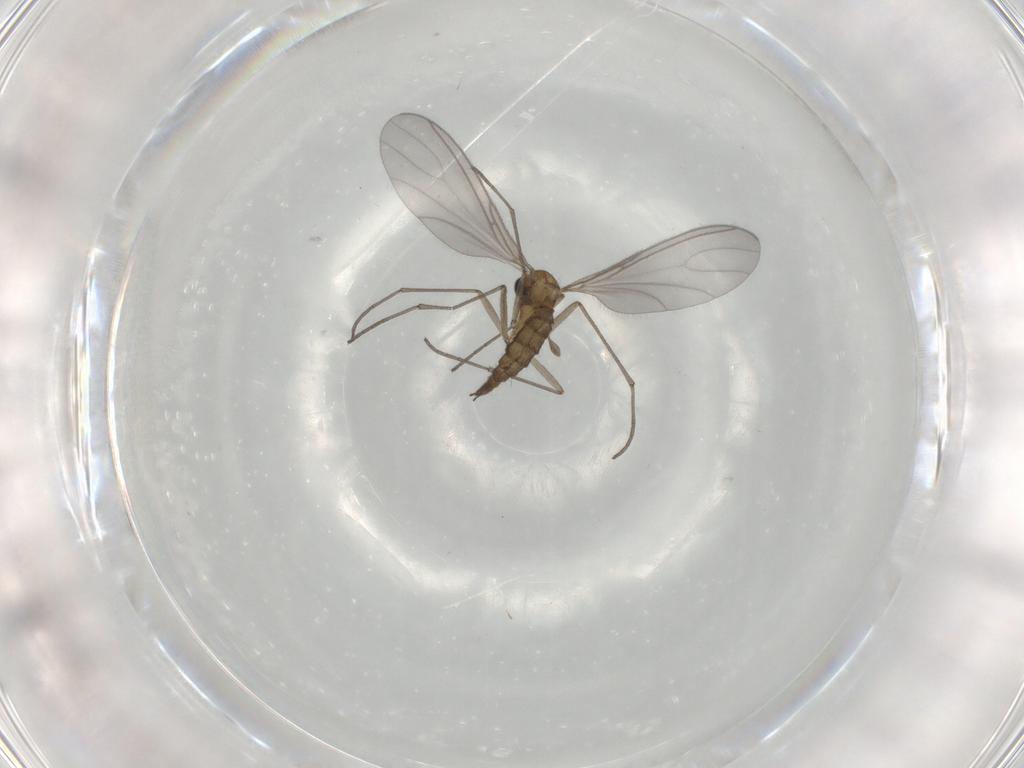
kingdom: Animalia
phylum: Arthropoda
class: Insecta
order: Diptera
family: Sciaridae
